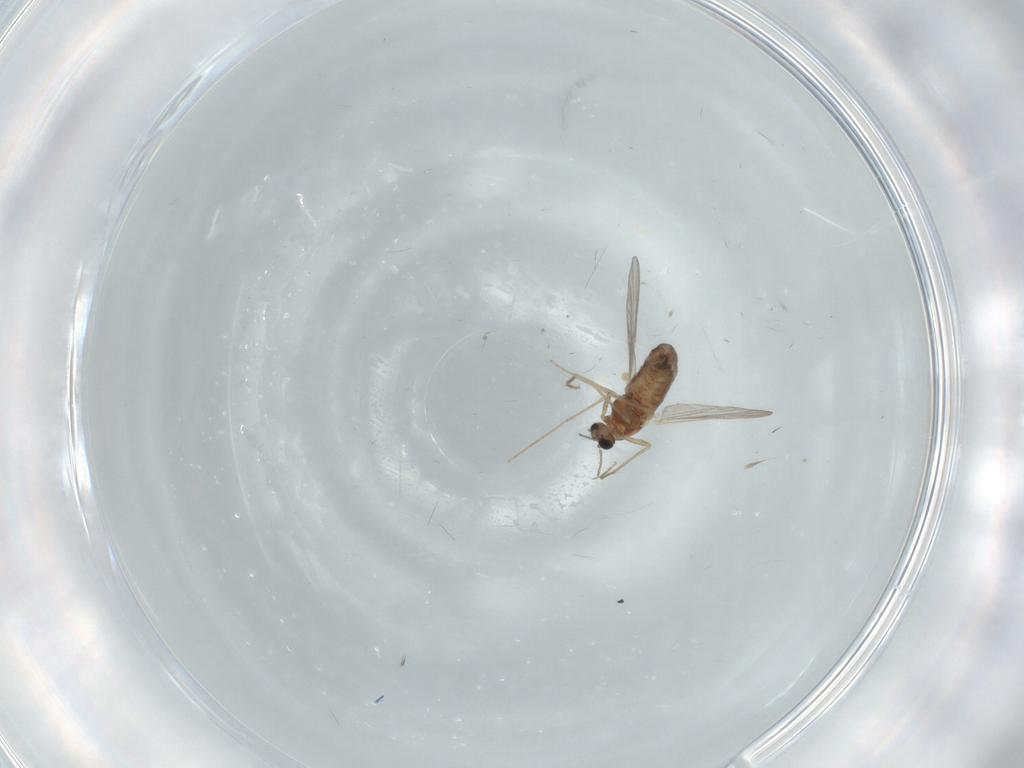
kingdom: Animalia
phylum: Arthropoda
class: Insecta
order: Diptera
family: Chironomidae
